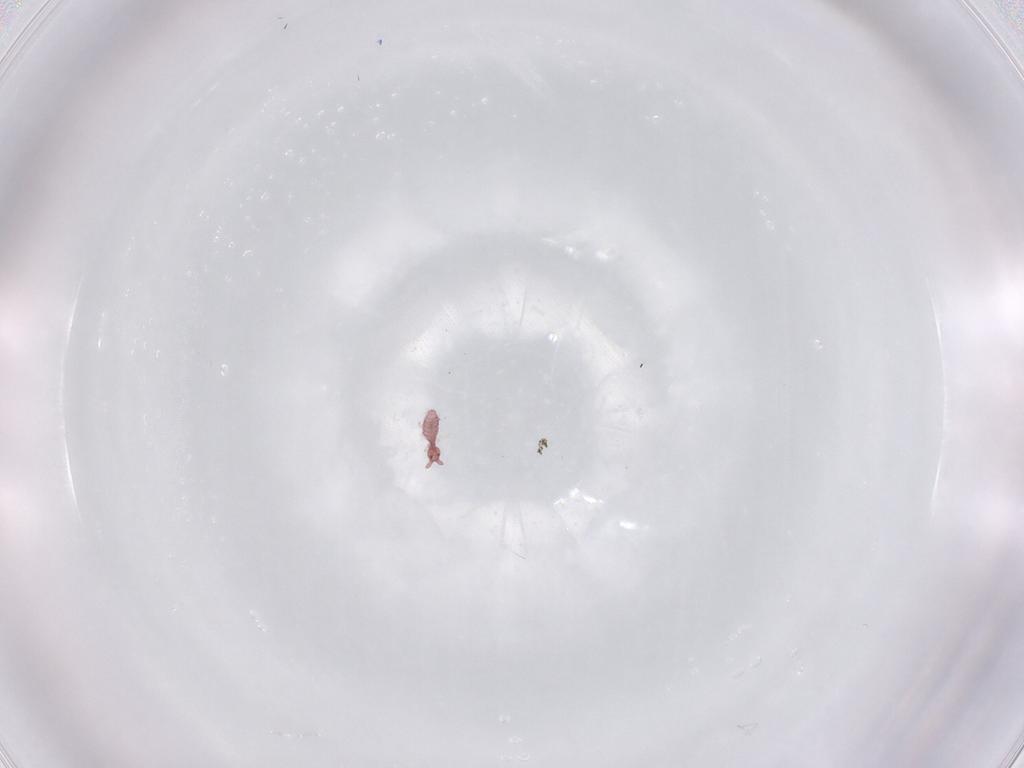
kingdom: Animalia
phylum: Arthropoda
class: Collembola
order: Poduromorpha
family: Hypogastruridae
